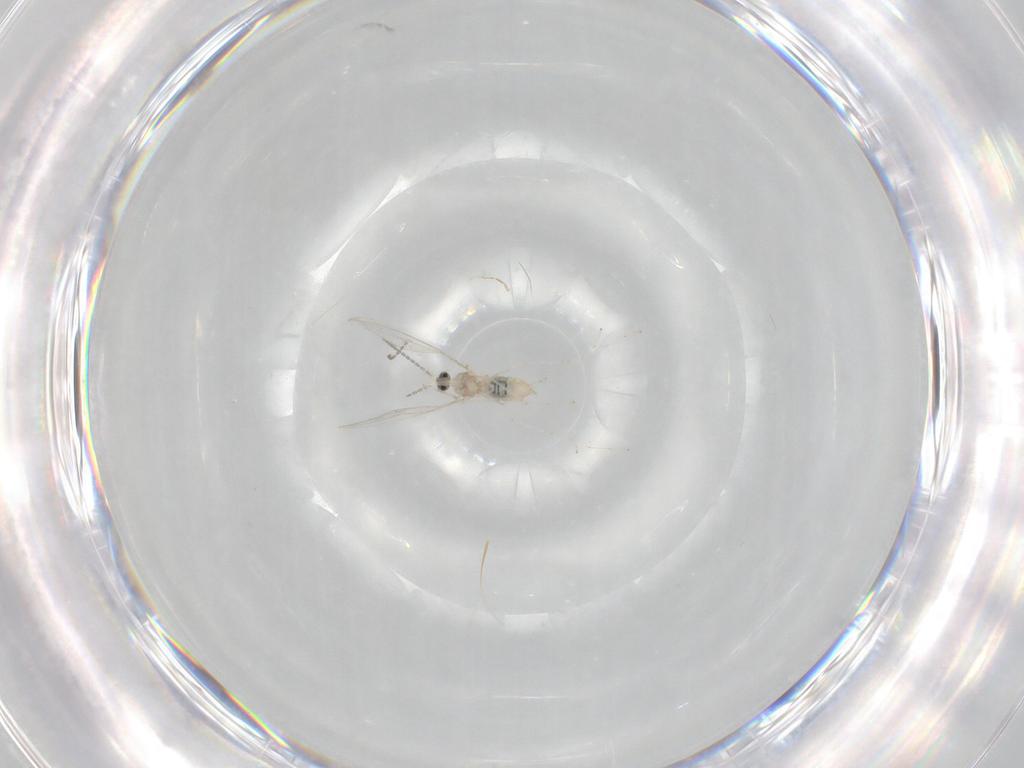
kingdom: Animalia
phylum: Arthropoda
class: Insecta
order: Diptera
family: Cecidomyiidae
